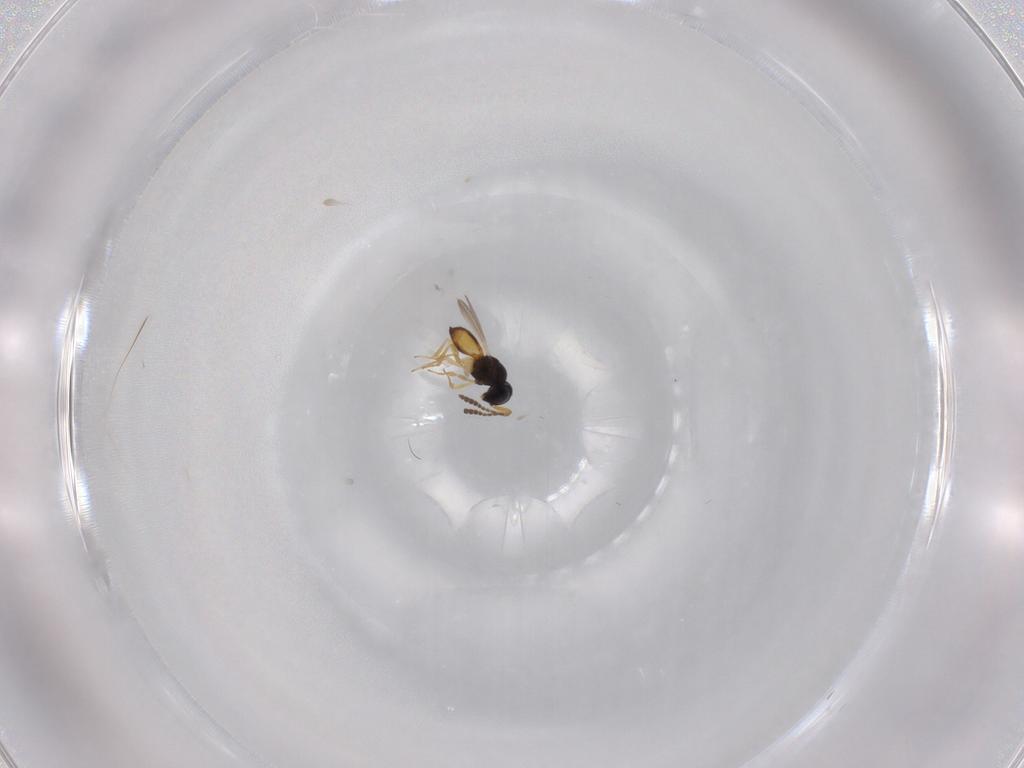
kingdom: Animalia
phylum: Arthropoda
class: Insecta
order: Hymenoptera
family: Scelionidae
